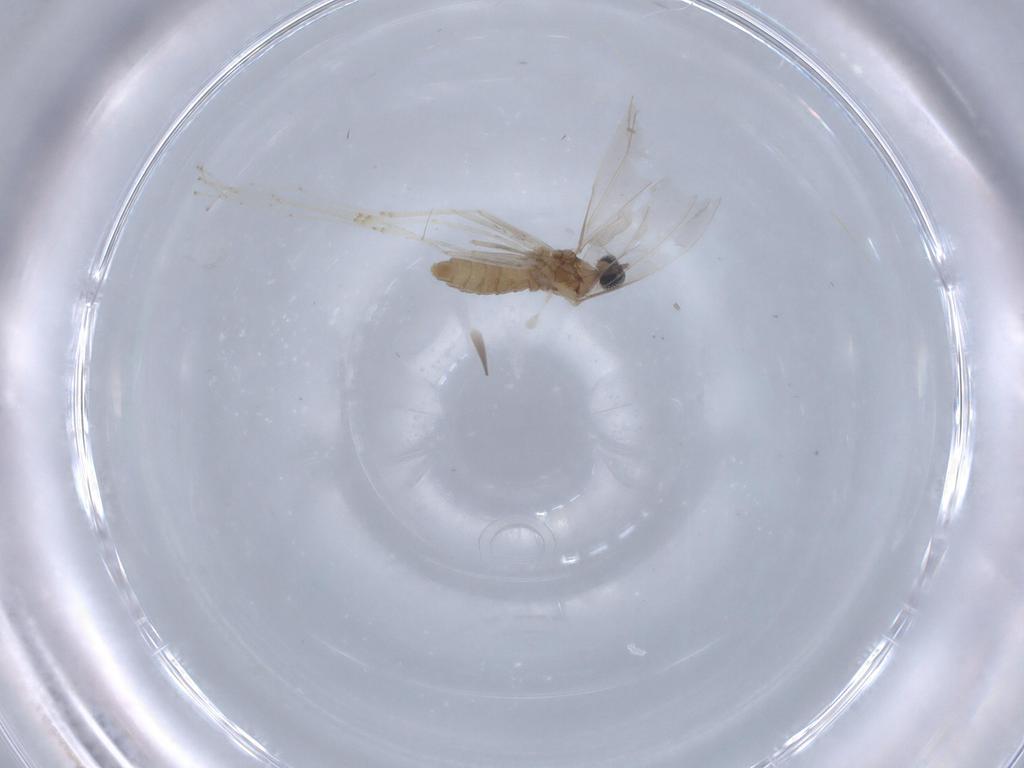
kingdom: Animalia
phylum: Arthropoda
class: Insecta
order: Diptera
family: Cecidomyiidae
